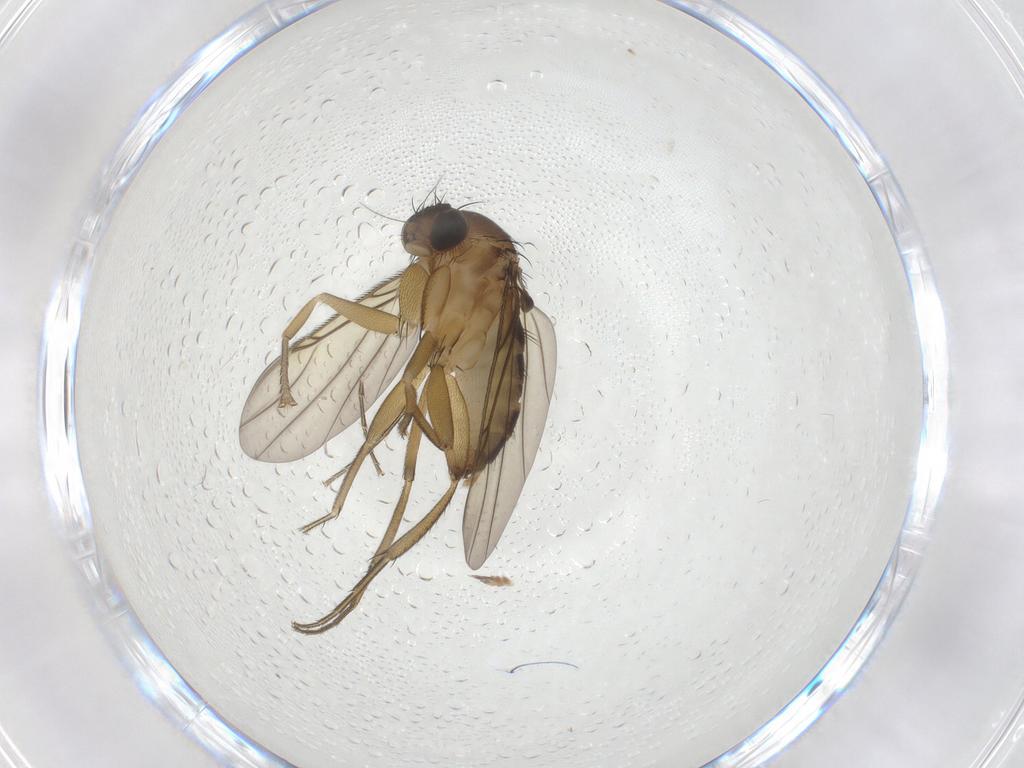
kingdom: Animalia
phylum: Arthropoda
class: Insecta
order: Diptera
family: Phoridae
